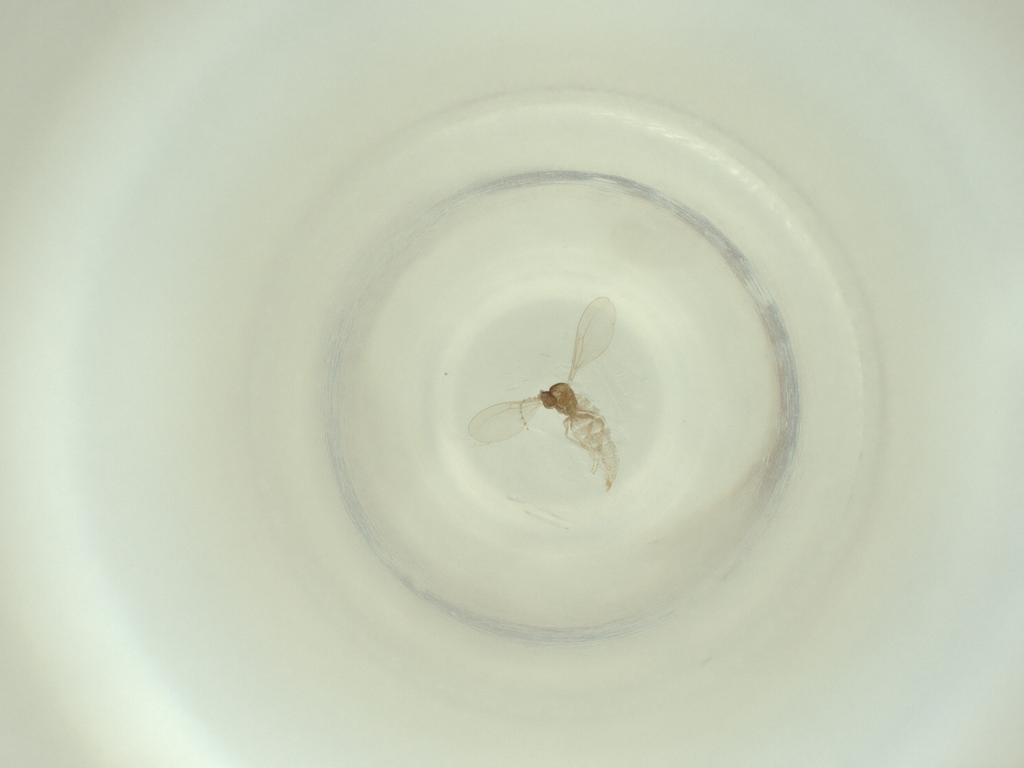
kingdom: Animalia
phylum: Arthropoda
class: Insecta
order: Diptera
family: Cecidomyiidae
